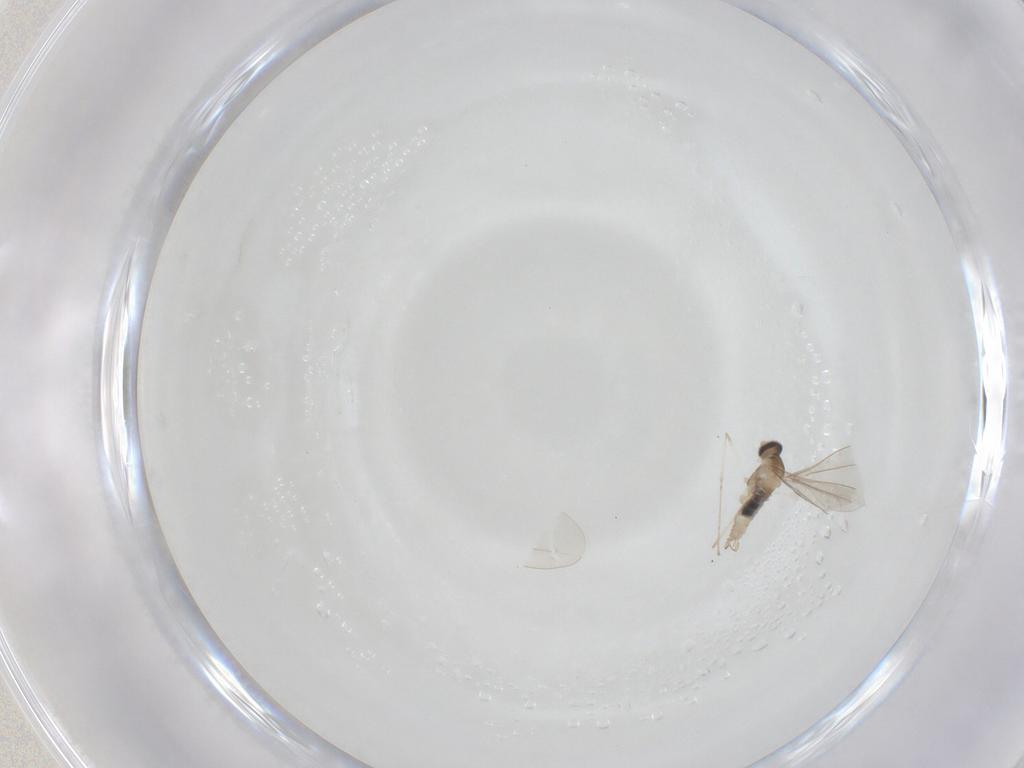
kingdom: Animalia
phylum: Arthropoda
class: Insecta
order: Diptera
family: Cecidomyiidae
